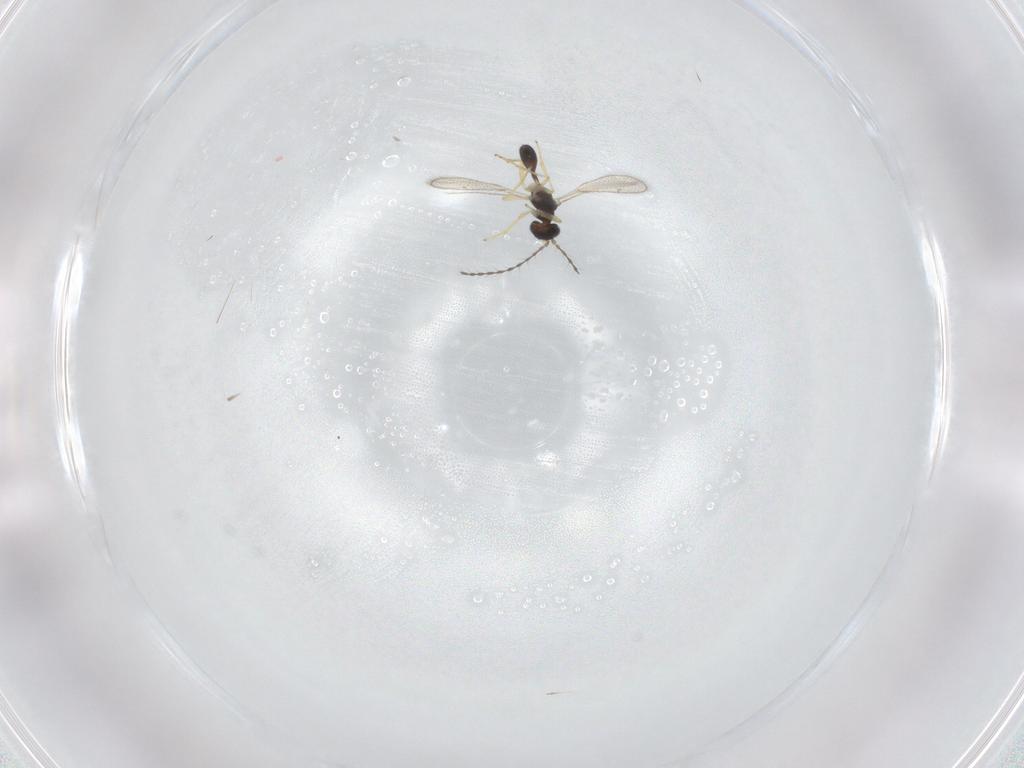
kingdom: Animalia
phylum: Arthropoda
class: Insecta
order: Hymenoptera
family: Diparidae
